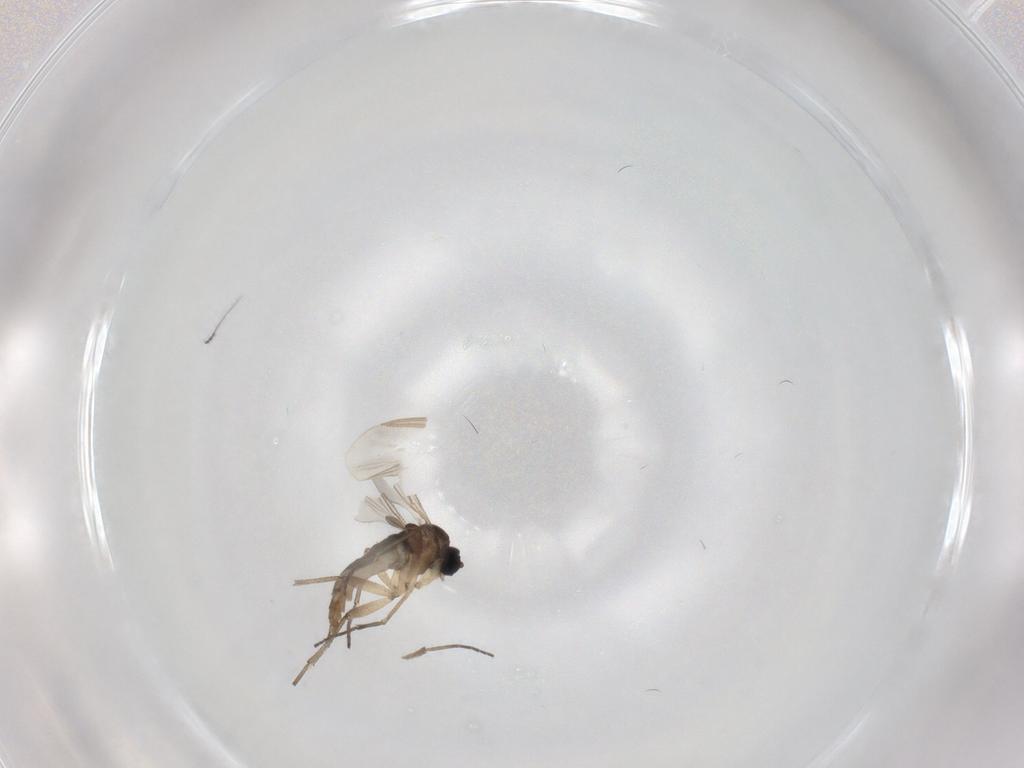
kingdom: Animalia
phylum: Arthropoda
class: Insecta
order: Diptera
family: Sciaridae
